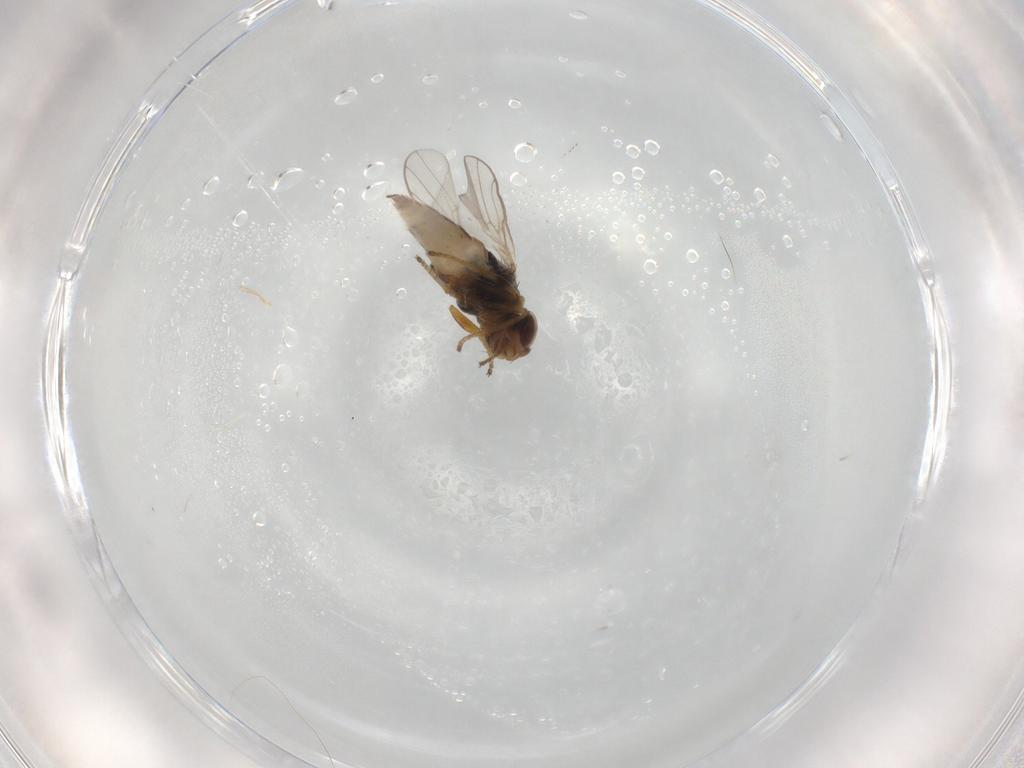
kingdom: Animalia
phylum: Arthropoda
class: Insecta
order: Diptera
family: Chloropidae
